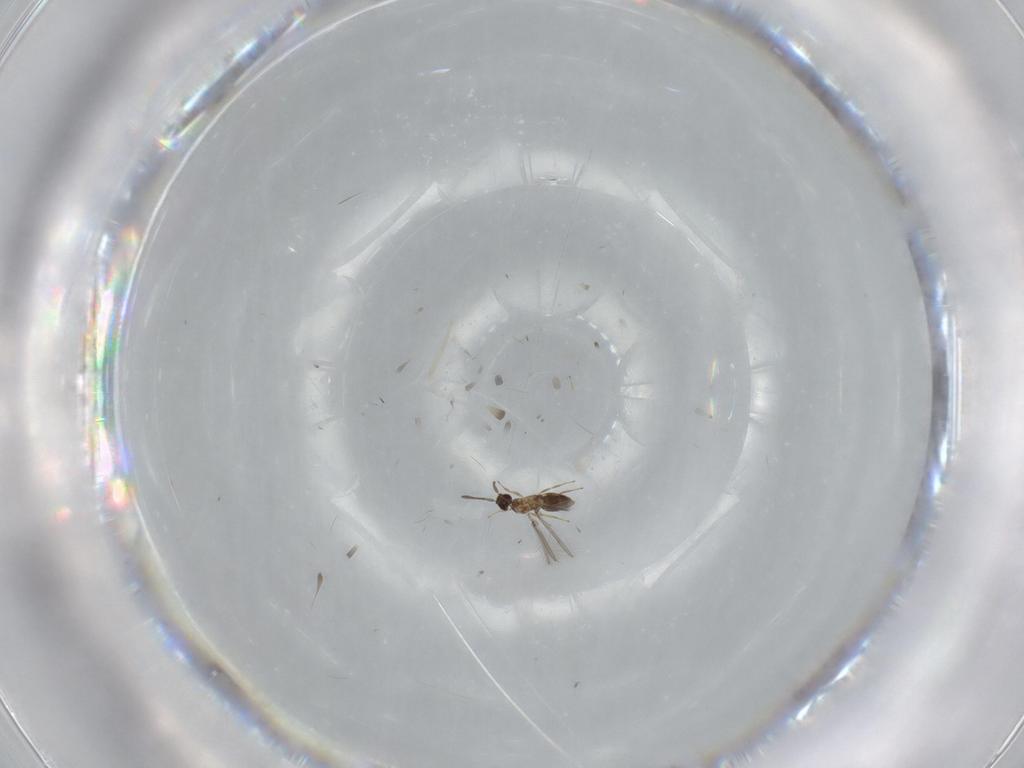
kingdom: Animalia
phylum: Arthropoda
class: Insecta
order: Hymenoptera
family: Mymaridae
